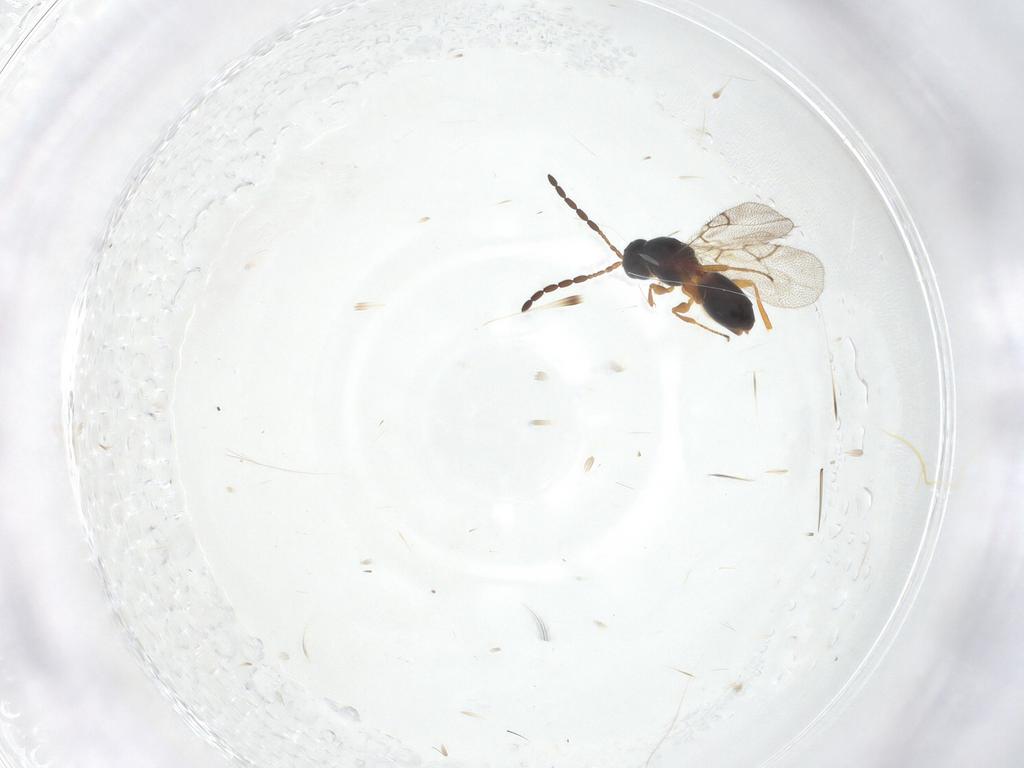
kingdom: Animalia
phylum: Arthropoda
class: Insecta
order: Hymenoptera
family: Figitidae
